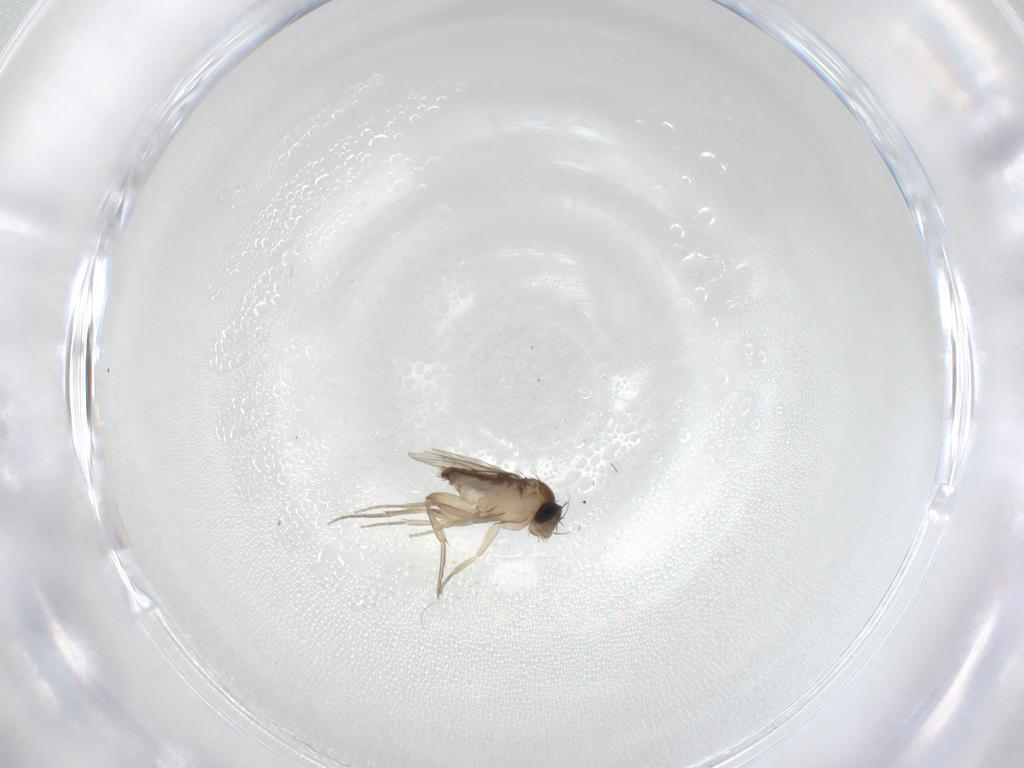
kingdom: Animalia
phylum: Arthropoda
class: Insecta
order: Diptera
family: Phoridae
